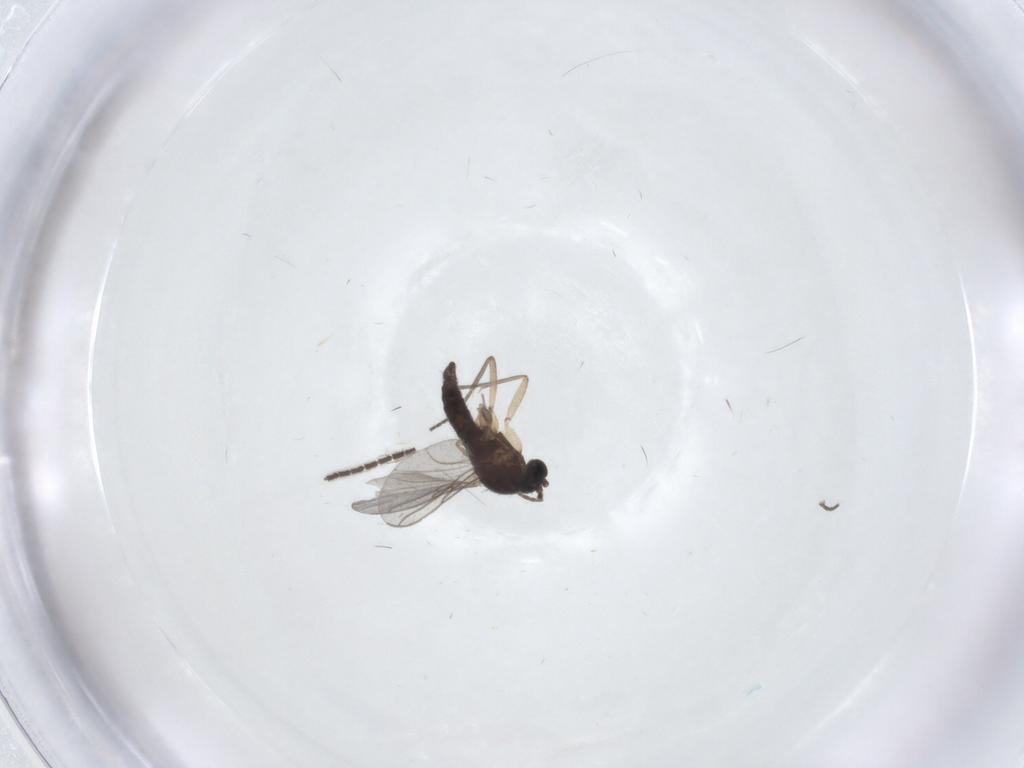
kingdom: Animalia
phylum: Arthropoda
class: Insecta
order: Diptera
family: Sciaridae
